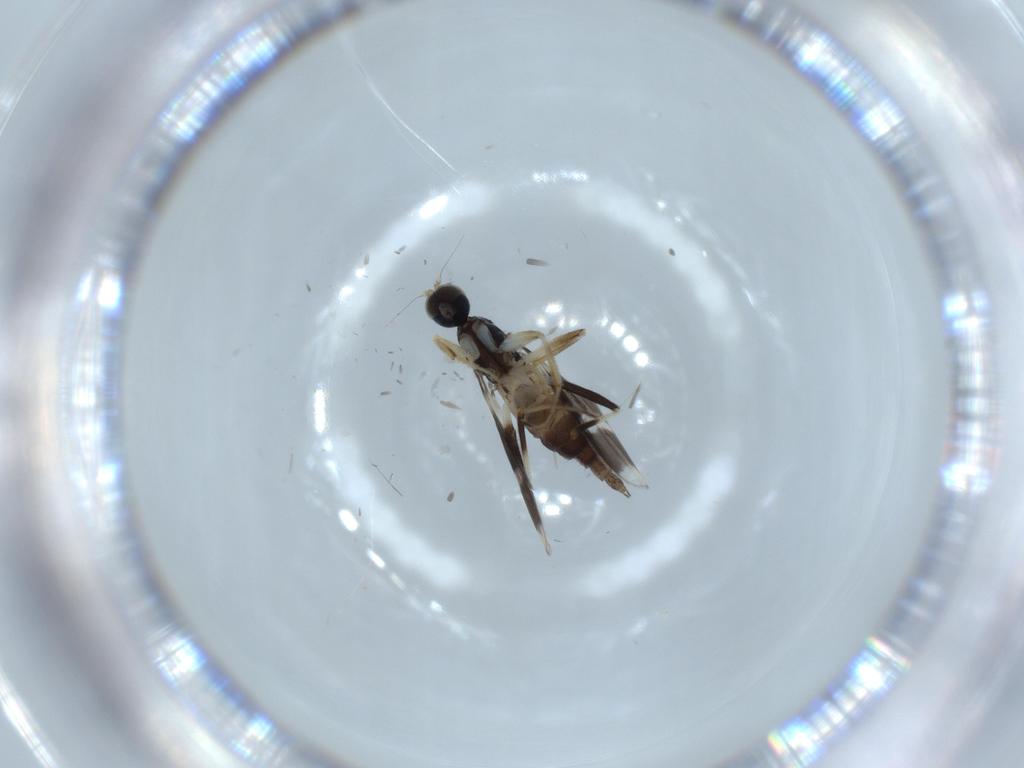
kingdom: Animalia
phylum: Arthropoda
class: Insecta
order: Diptera
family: Hybotidae
